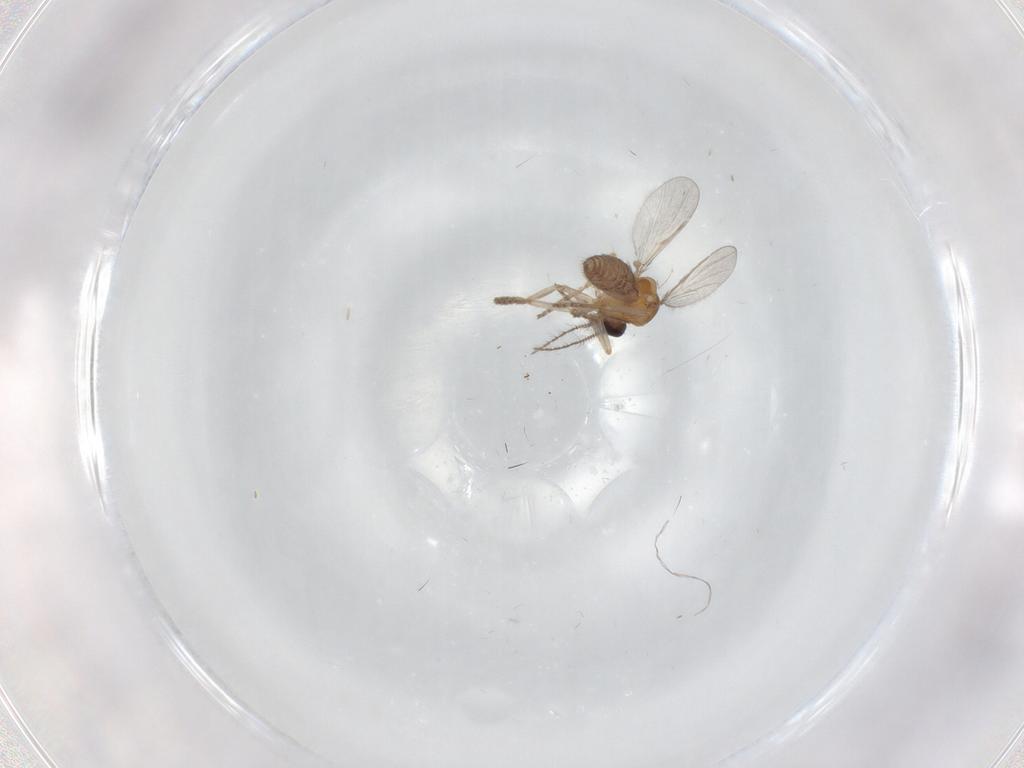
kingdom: Animalia
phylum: Arthropoda
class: Insecta
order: Diptera
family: Ceratopogonidae
